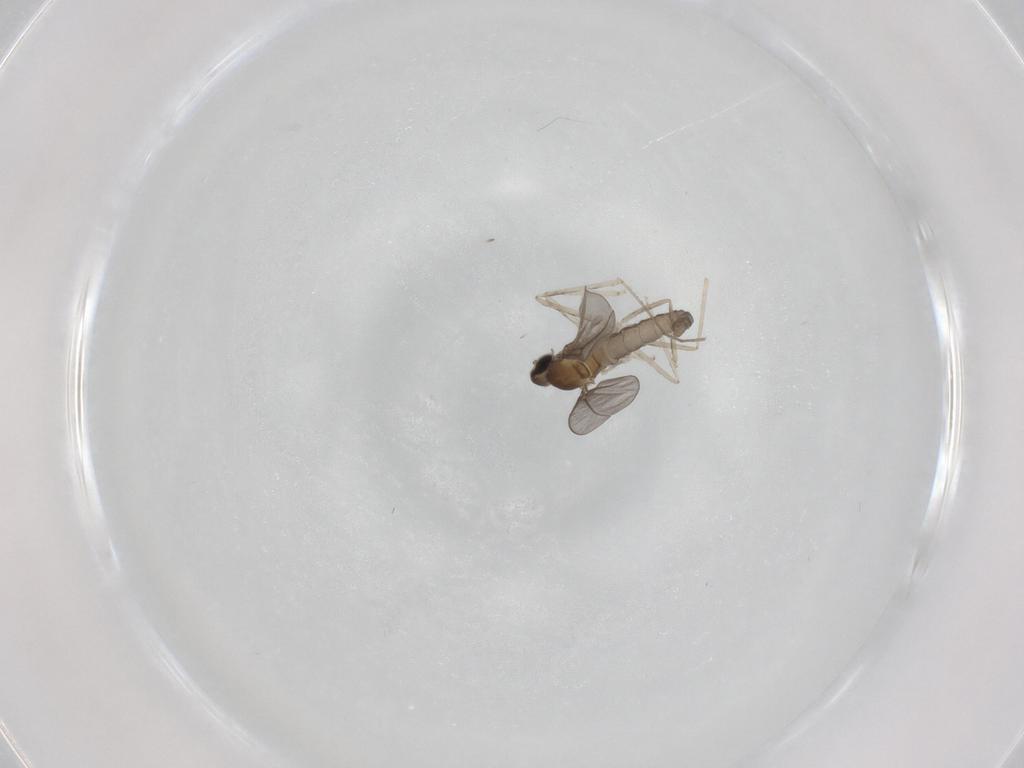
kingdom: Animalia
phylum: Arthropoda
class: Insecta
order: Diptera
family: Cecidomyiidae
